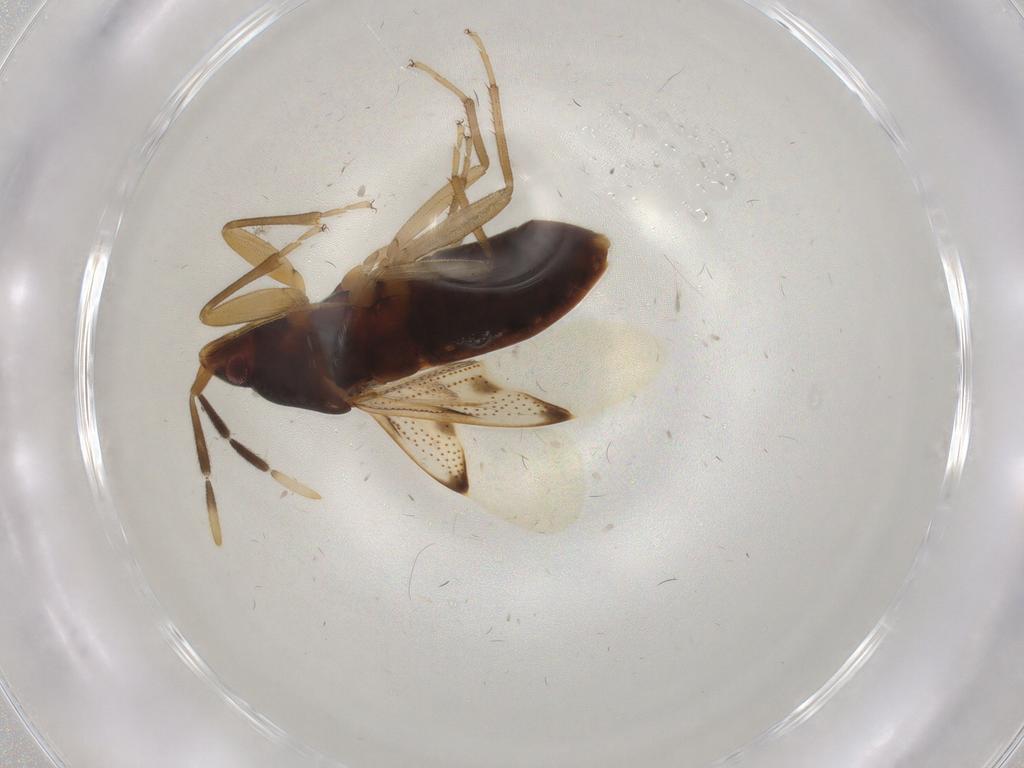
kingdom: Animalia
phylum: Arthropoda
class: Insecta
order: Hemiptera
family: Rhyparochromidae
